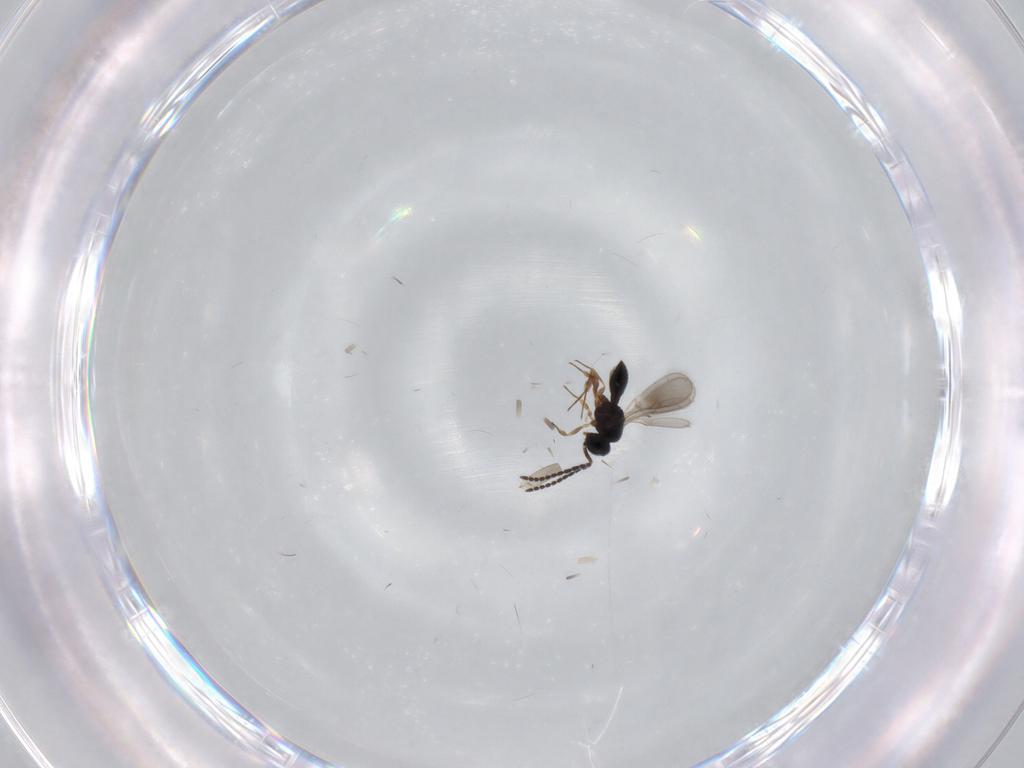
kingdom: Animalia
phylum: Arthropoda
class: Insecta
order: Hymenoptera
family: Scelionidae
